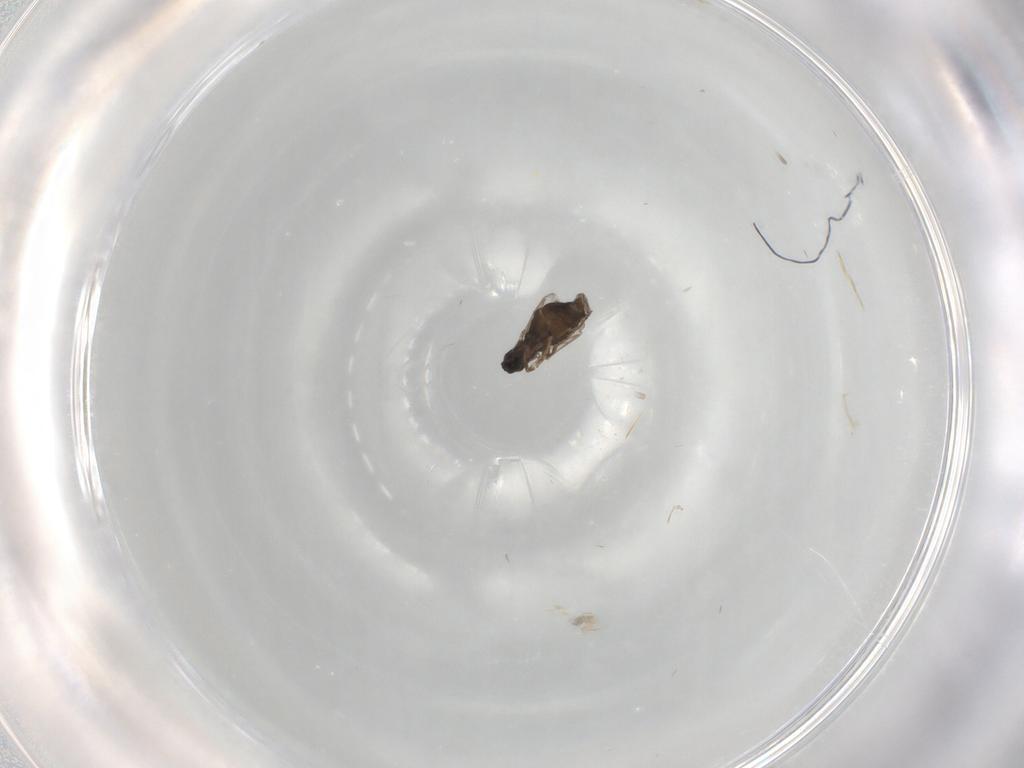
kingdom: Animalia
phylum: Arthropoda
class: Insecta
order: Diptera
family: Scatopsidae
